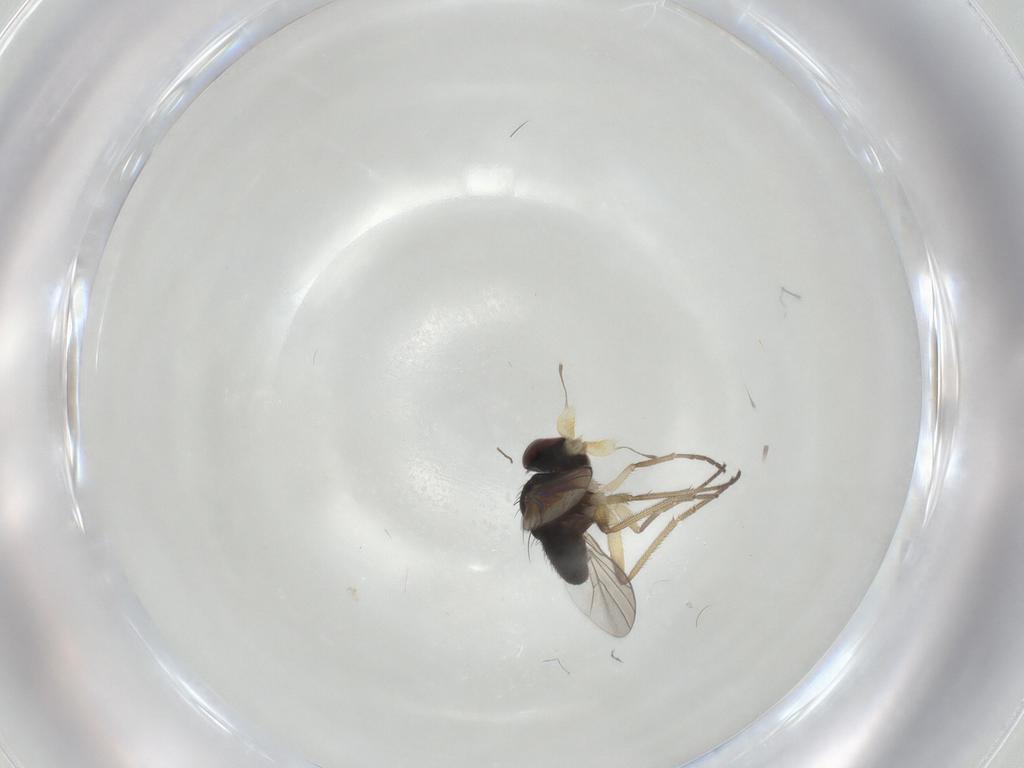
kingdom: Animalia
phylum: Arthropoda
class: Insecta
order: Diptera
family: Dolichopodidae
